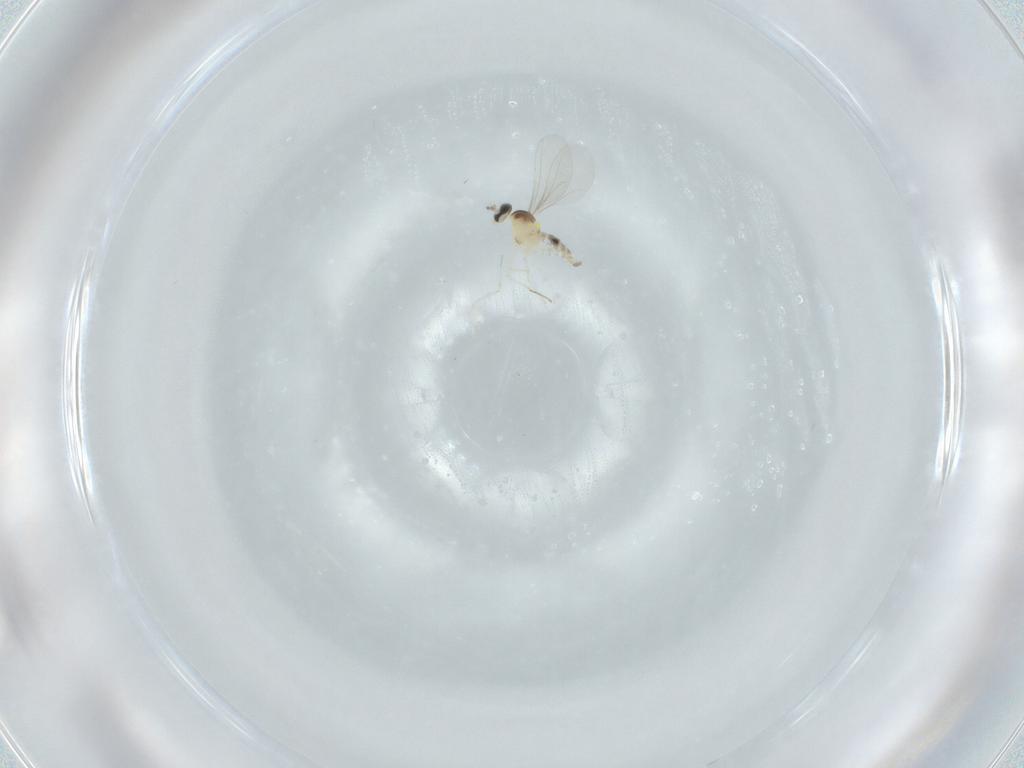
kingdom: Animalia
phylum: Arthropoda
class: Insecta
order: Diptera
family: Cecidomyiidae
